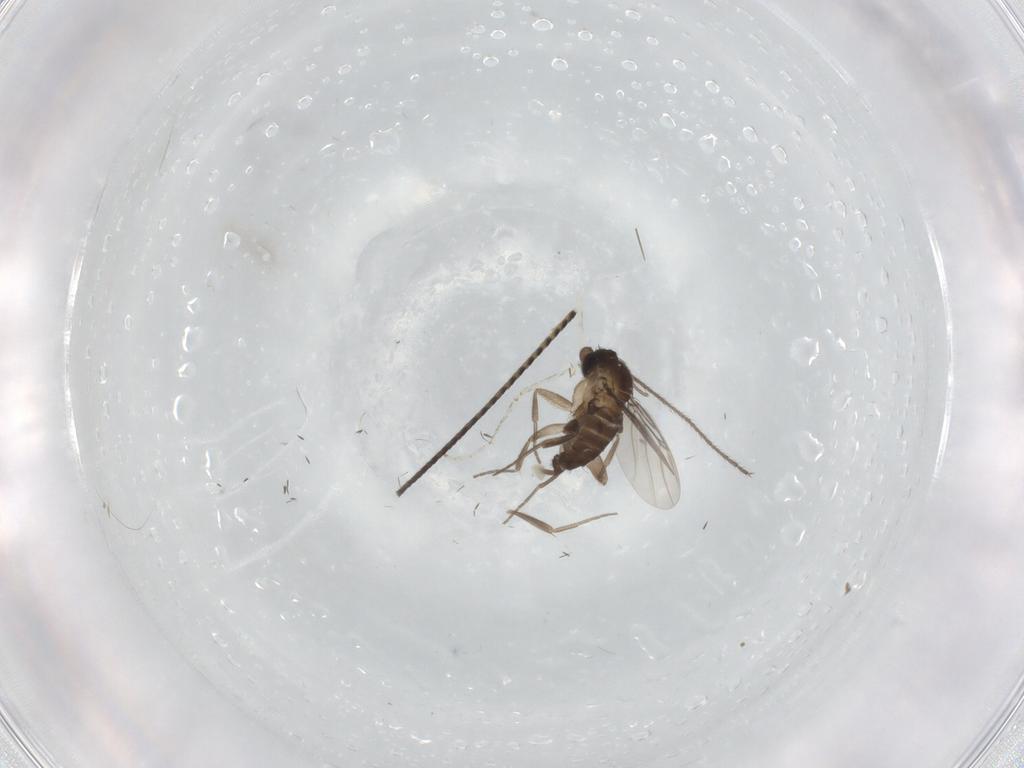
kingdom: Animalia
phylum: Arthropoda
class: Insecta
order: Diptera
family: Cecidomyiidae
